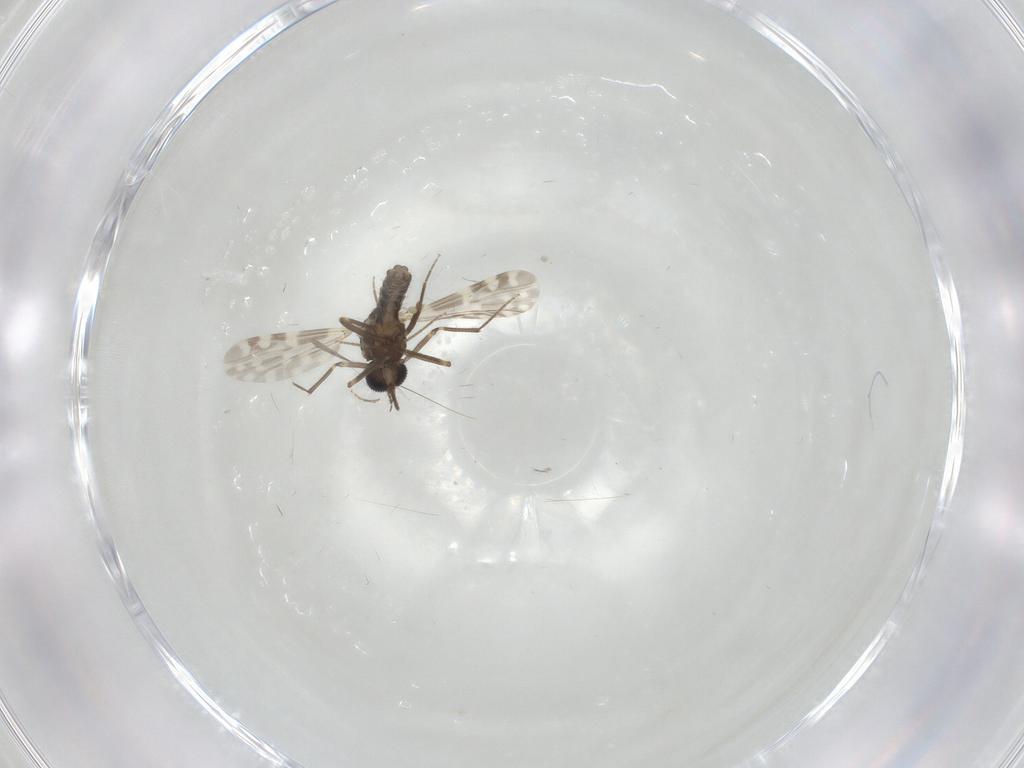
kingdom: Animalia
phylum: Arthropoda
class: Insecta
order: Diptera
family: Ceratopogonidae
